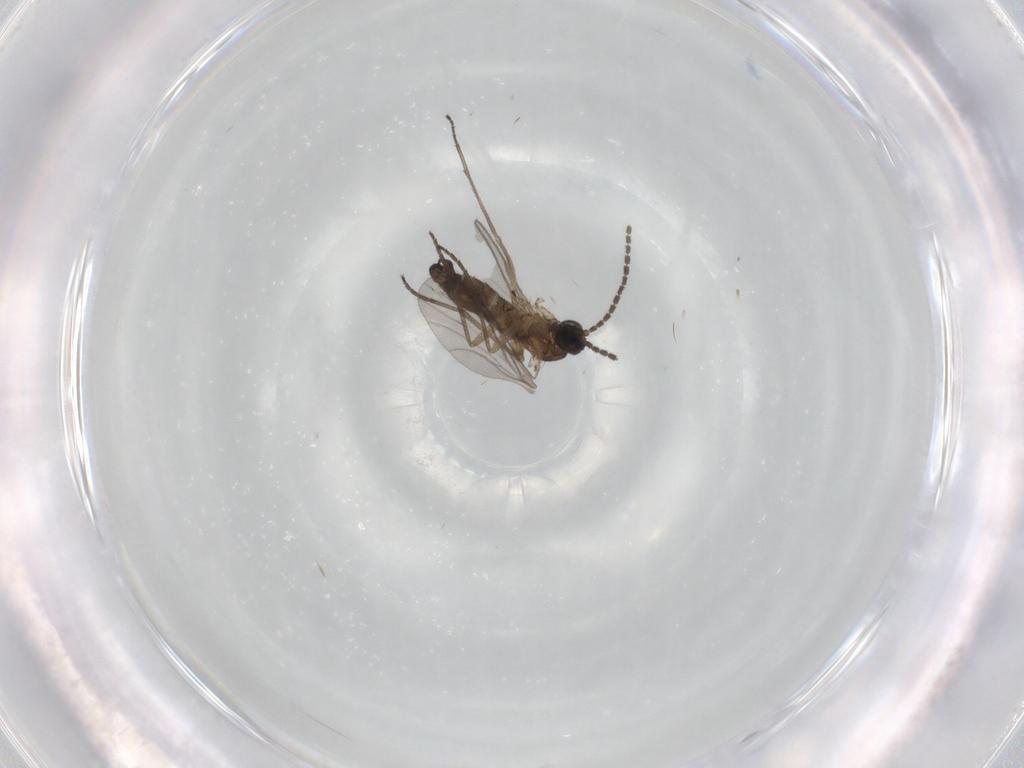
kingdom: Animalia
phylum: Arthropoda
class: Insecta
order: Diptera
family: Sciaridae
